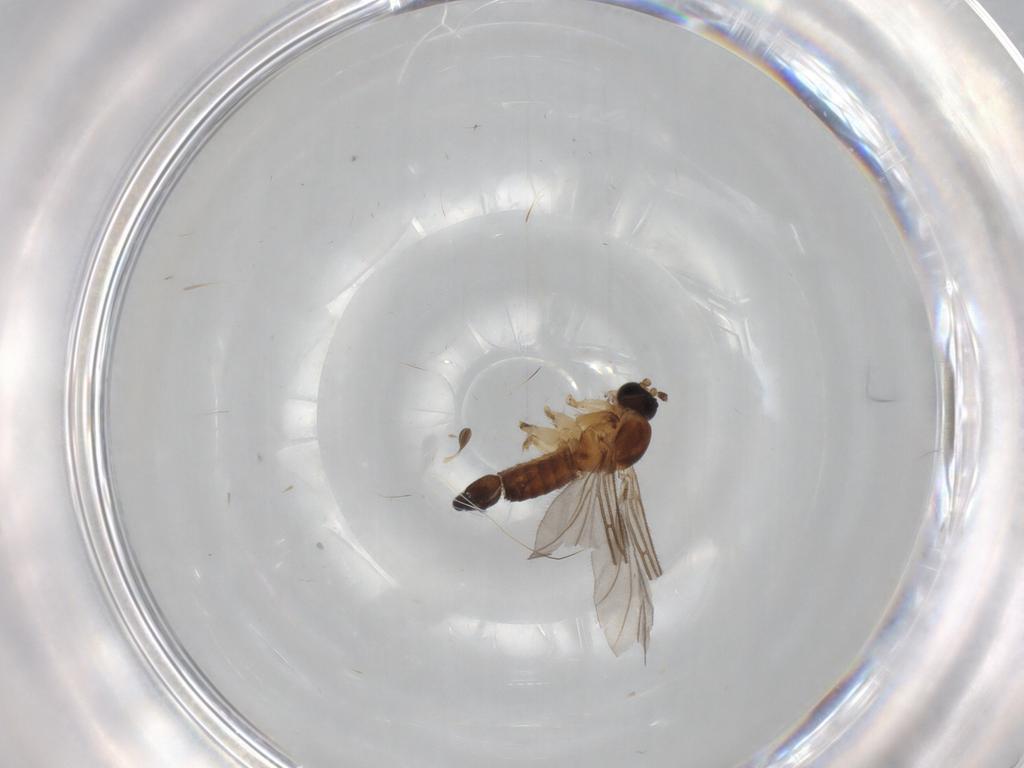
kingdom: Animalia
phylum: Arthropoda
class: Insecta
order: Diptera
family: Sciaridae
